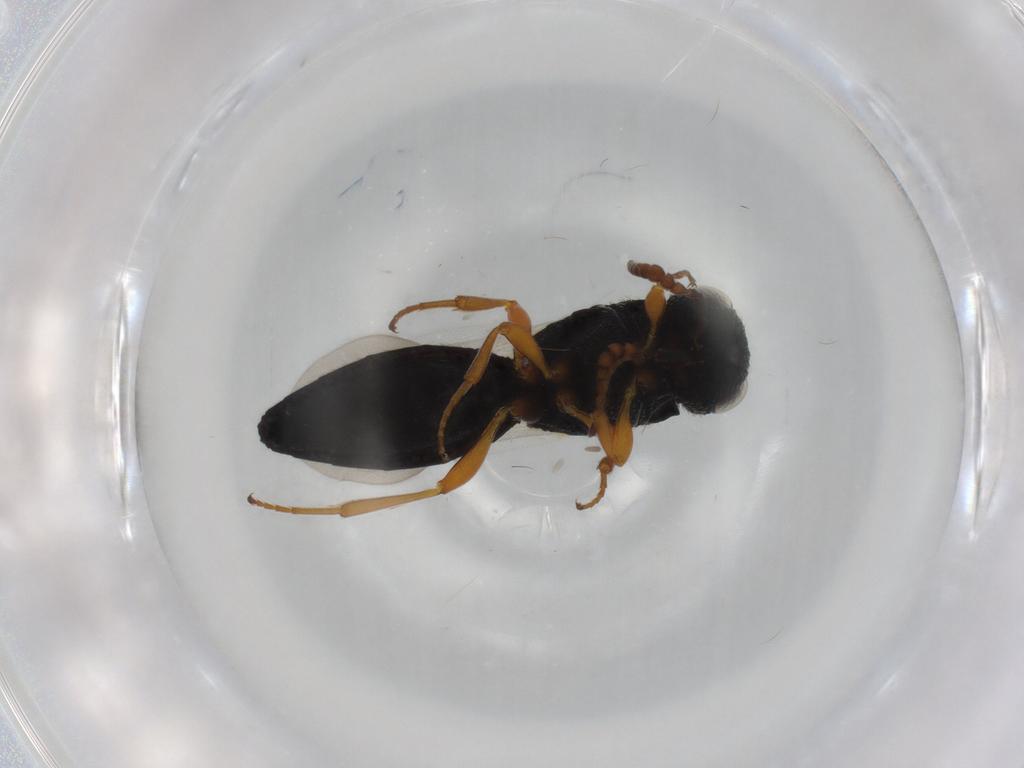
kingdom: Animalia
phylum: Arthropoda
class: Insecta
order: Hymenoptera
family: Scelionidae
